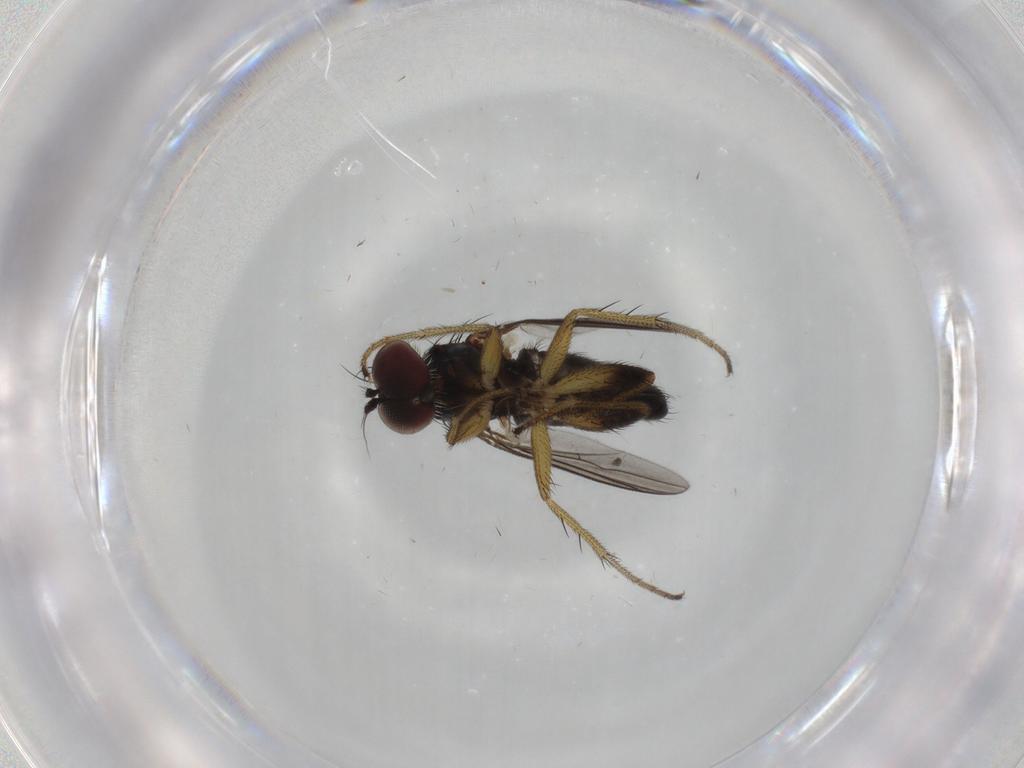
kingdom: Animalia
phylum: Arthropoda
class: Insecta
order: Diptera
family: Dolichopodidae
